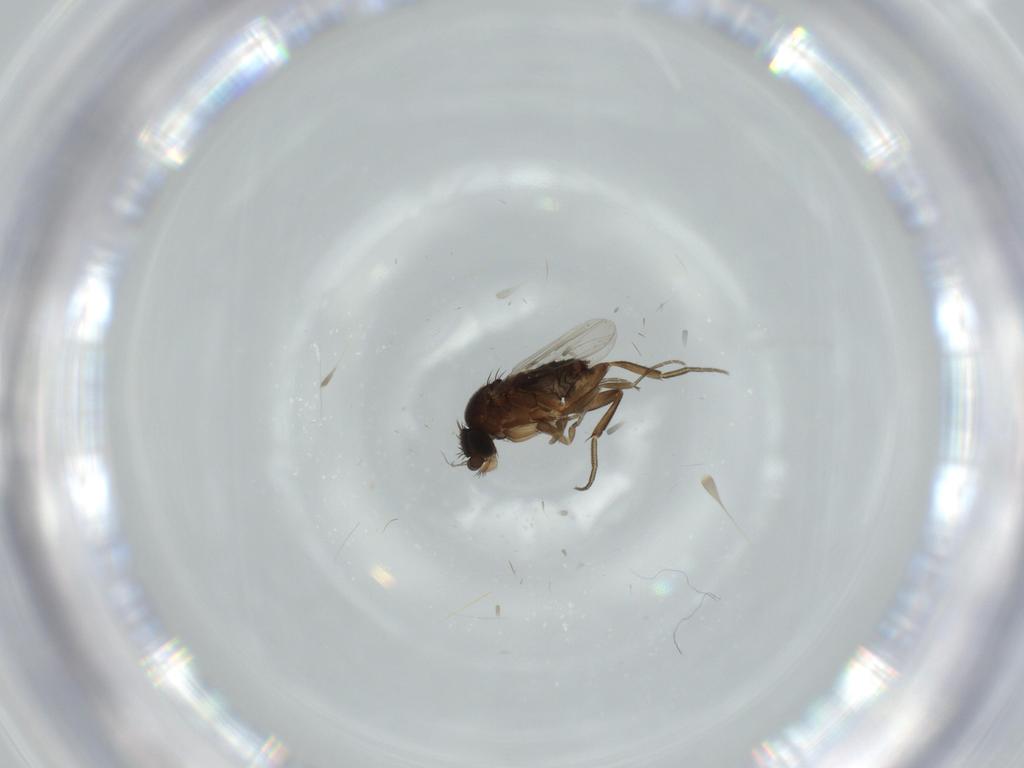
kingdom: Animalia
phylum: Arthropoda
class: Insecta
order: Diptera
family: Phoridae
